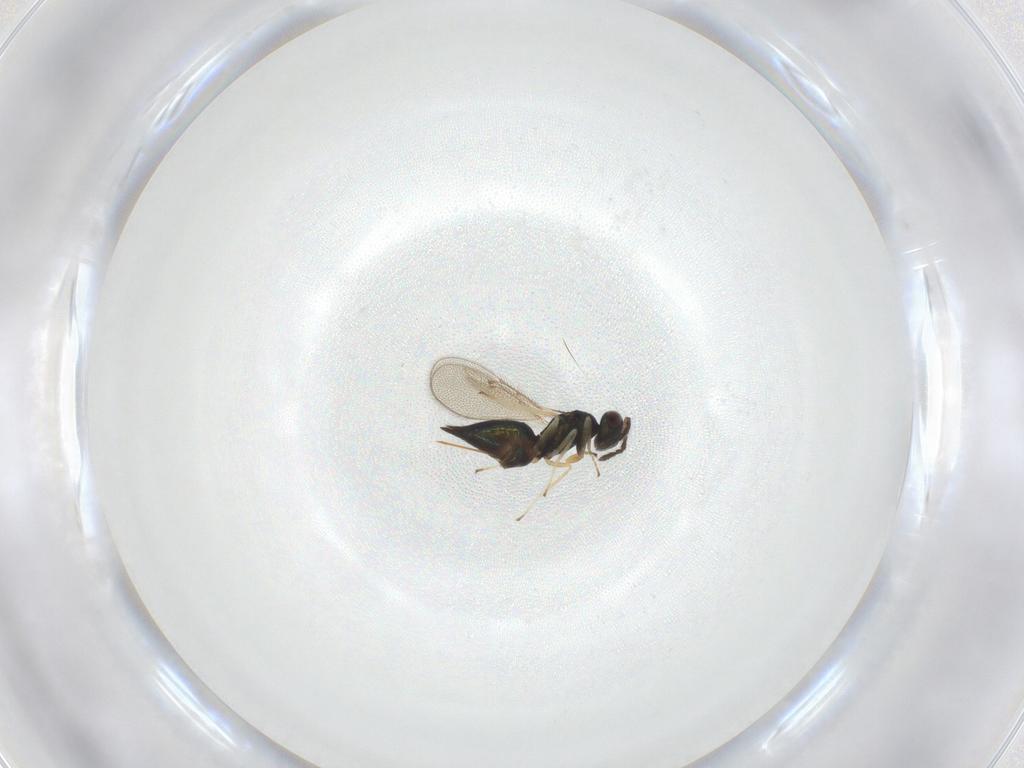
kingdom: Animalia
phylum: Arthropoda
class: Insecta
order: Hymenoptera
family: Eulophidae
